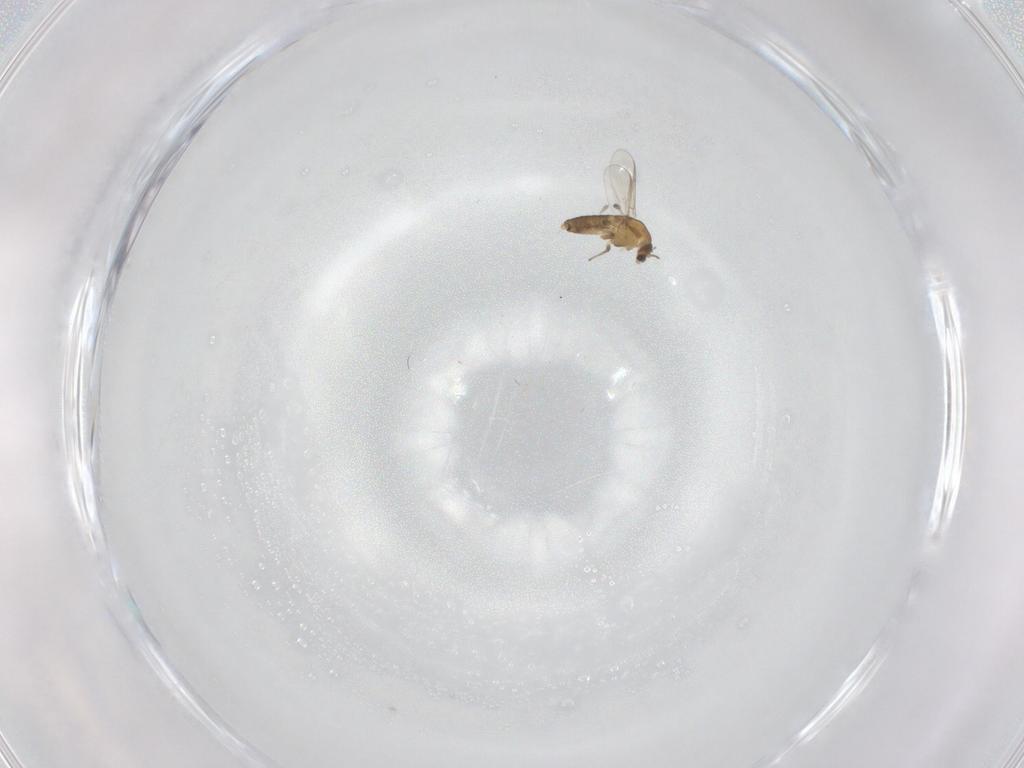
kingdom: Animalia
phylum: Arthropoda
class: Insecta
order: Diptera
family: Chironomidae
